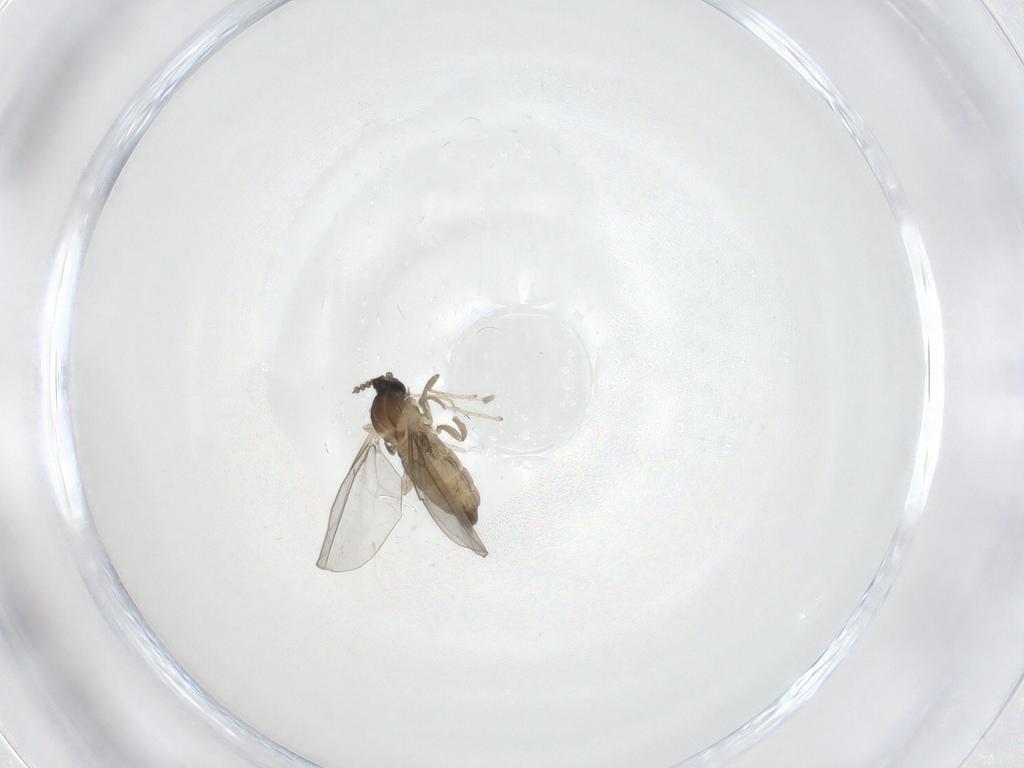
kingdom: Animalia
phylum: Arthropoda
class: Insecta
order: Diptera
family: Cecidomyiidae
